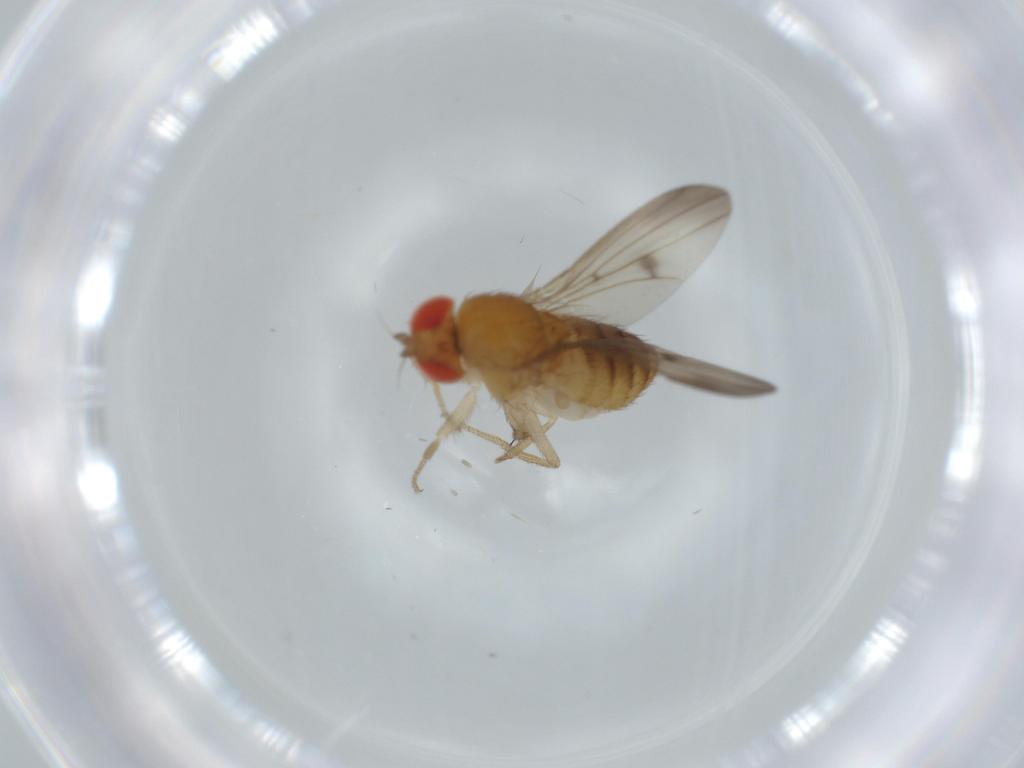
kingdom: Animalia
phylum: Arthropoda
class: Insecta
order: Diptera
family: Drosophilidae
